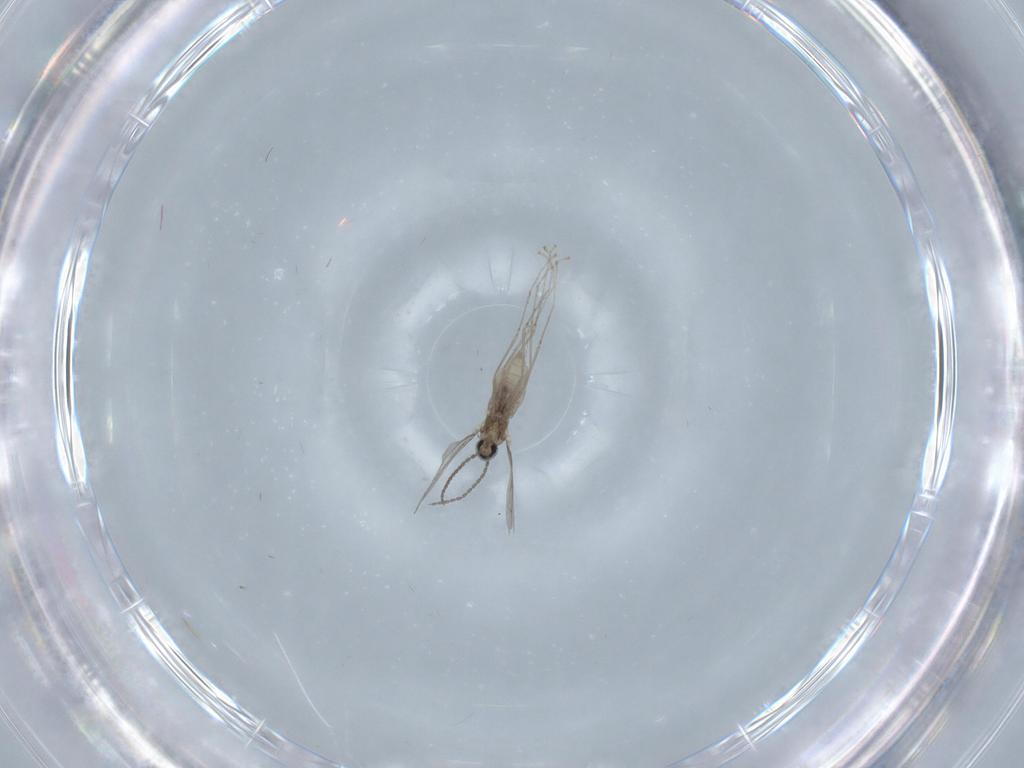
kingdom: Animalia
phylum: Arthropoda
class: Insecta
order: Diptera
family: Cecidomyiidae
